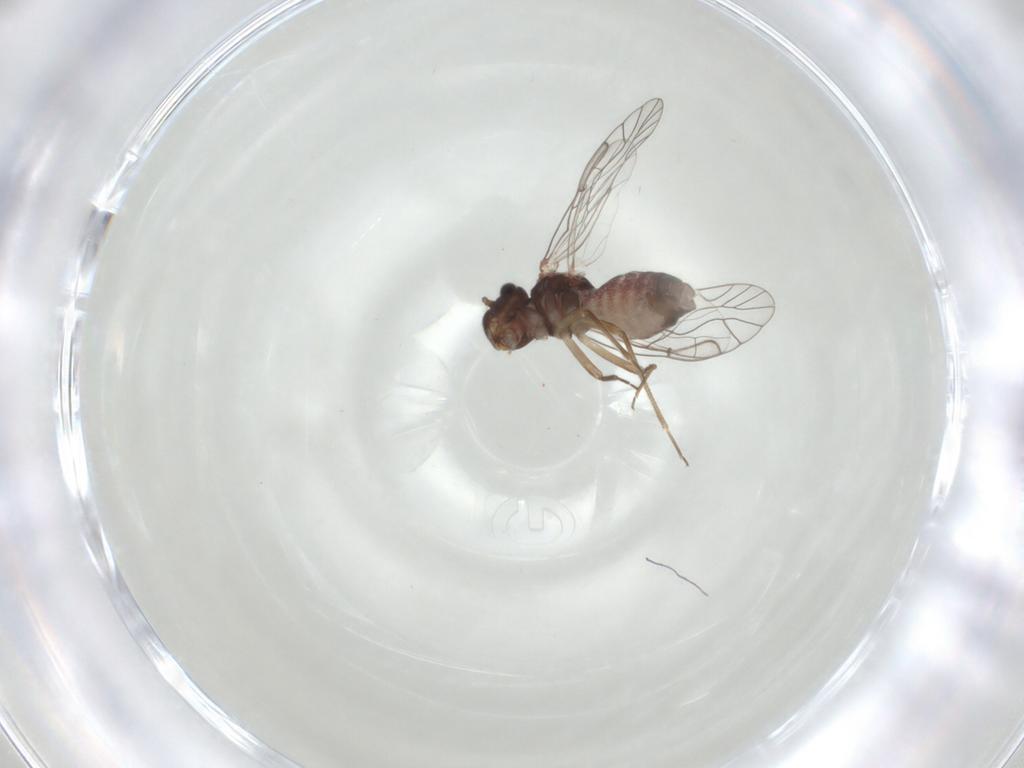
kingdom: Animalia
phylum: Arthropoda
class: Insecta
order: Psocodea
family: Lachesillidae
